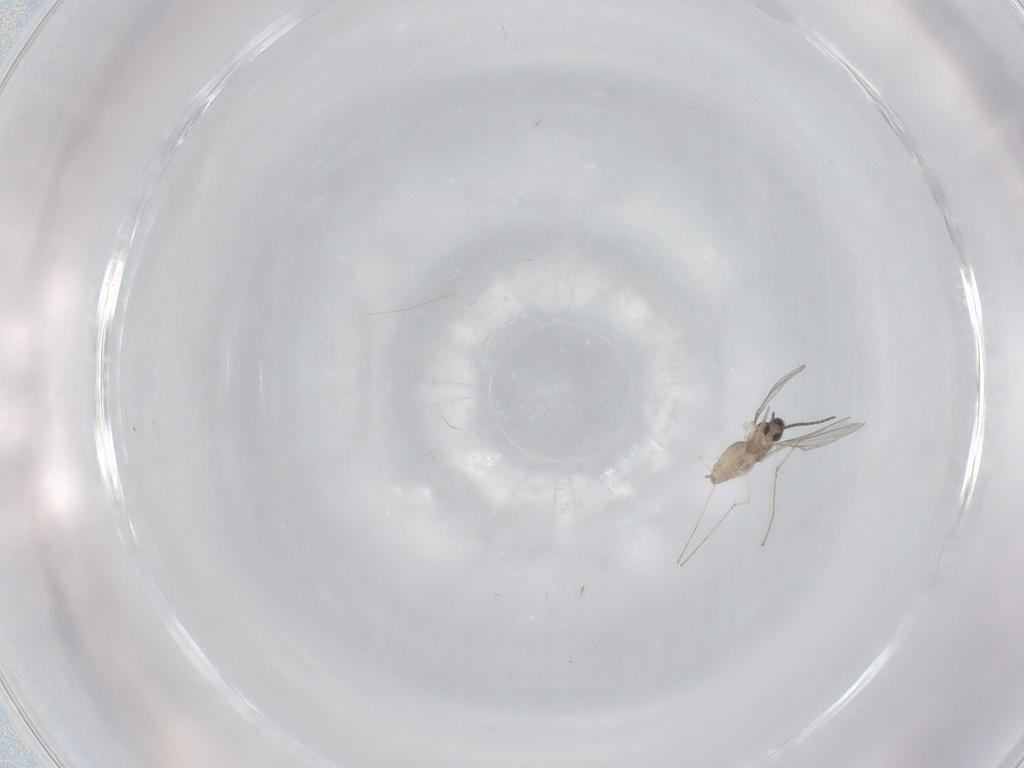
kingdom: Animalia
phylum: Arthropoda
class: Insecta
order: Diptera
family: Cecidomyiidae
